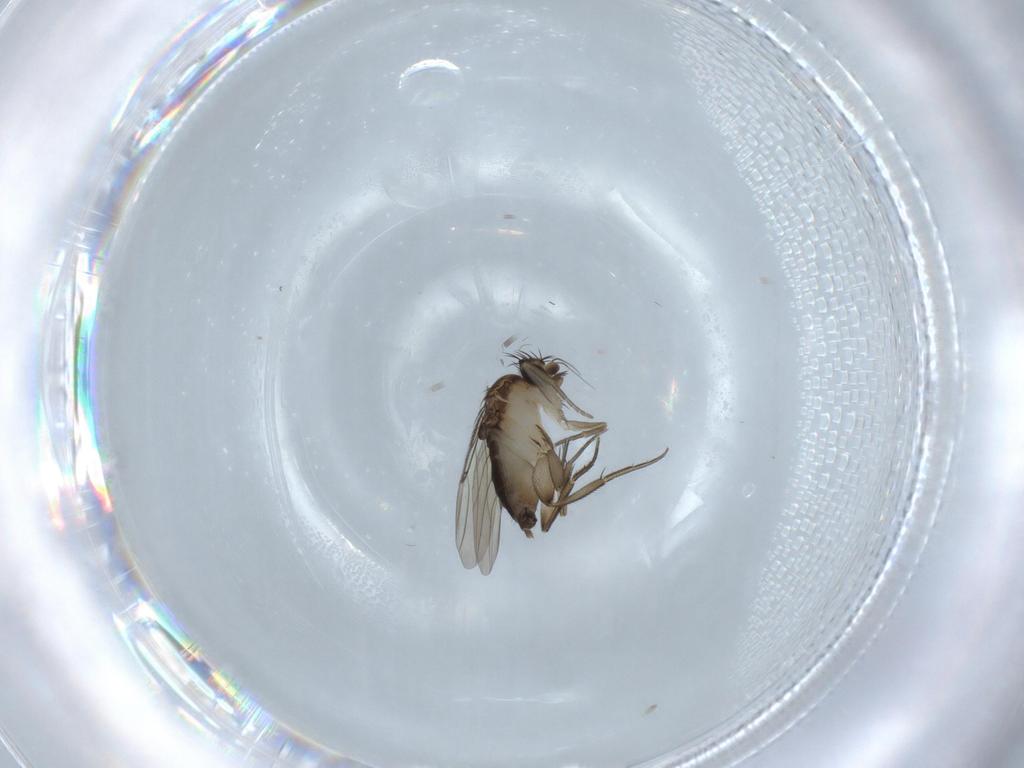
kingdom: Animalia
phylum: Arthropoda
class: Insecta
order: Diptera
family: Phoridae
